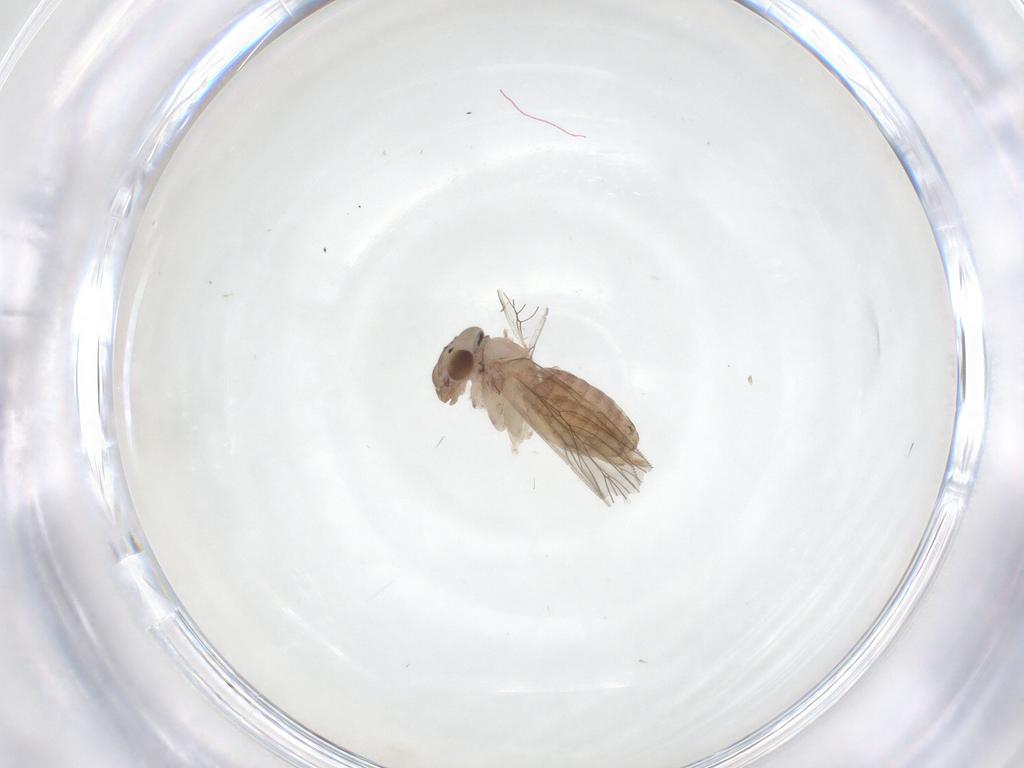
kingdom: Animalia
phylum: Arthropoda
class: Insecta
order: Psocodea
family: Lepidopsocidae
